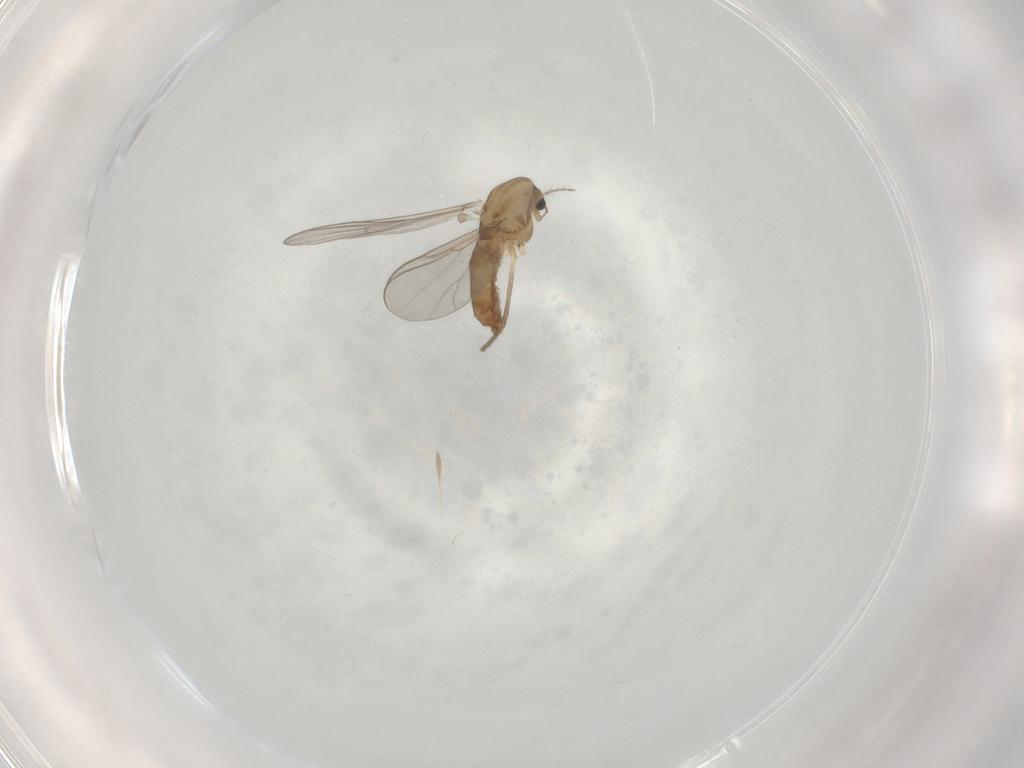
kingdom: Animalia
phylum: Arthropoda
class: Insecta
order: Diptera
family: Chironomidae
